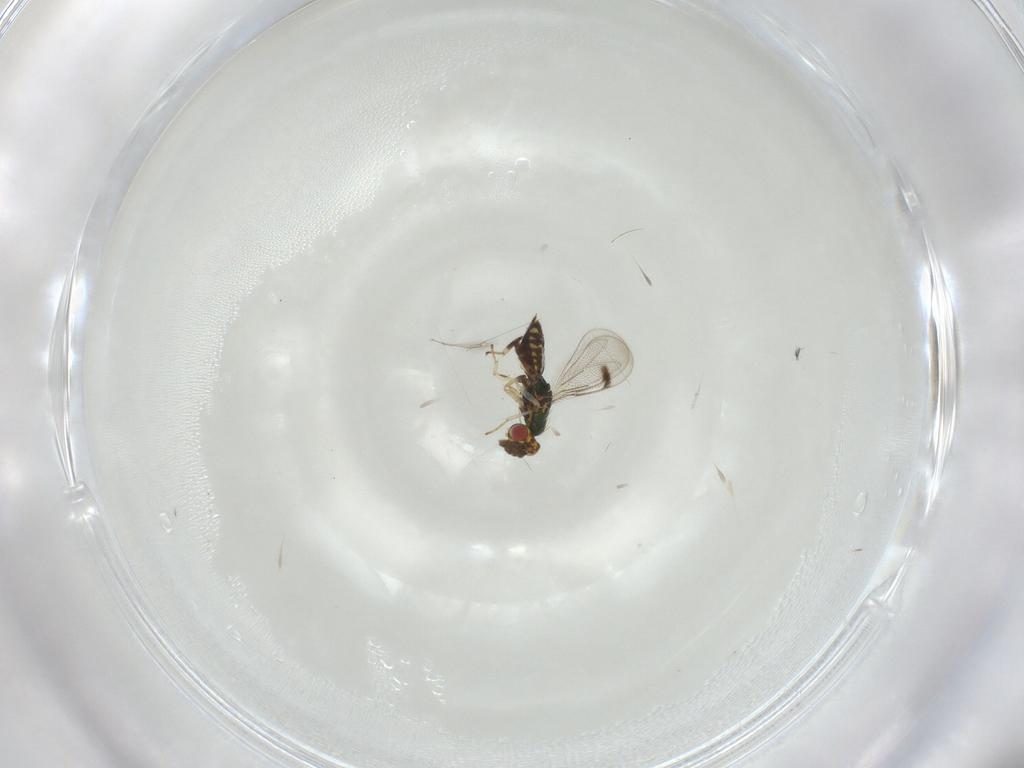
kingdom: Animalia
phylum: Arthropoda
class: Insecta
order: Hymenoptera
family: Eulophidae
